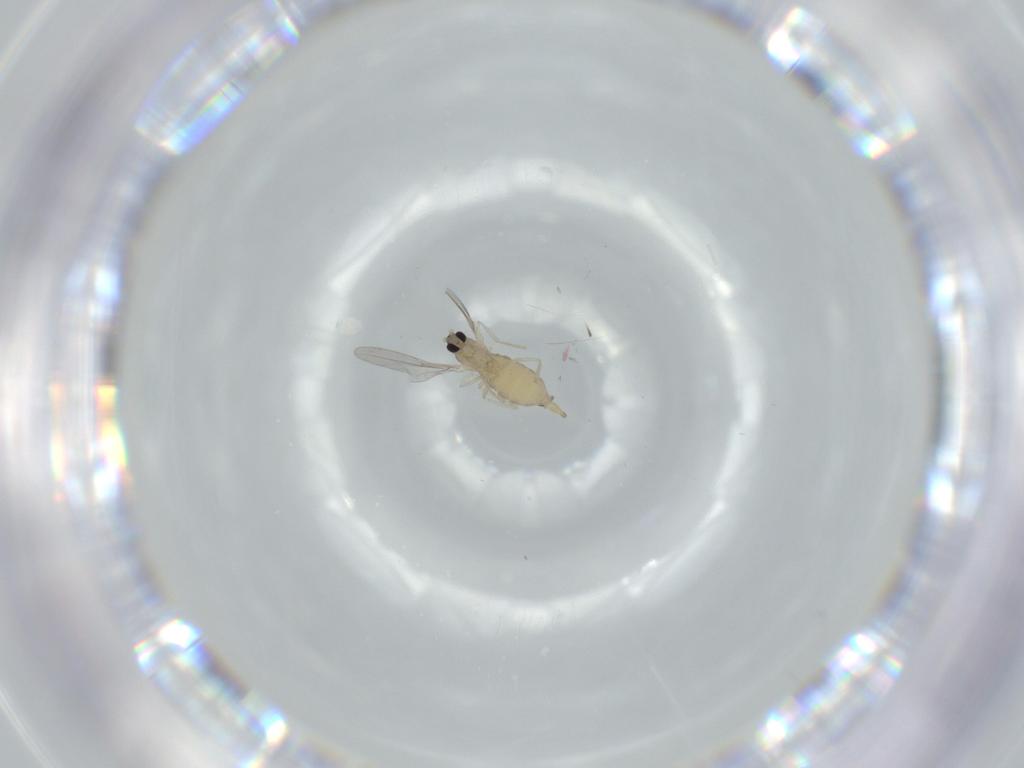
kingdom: Animalia
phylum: Arthropoda
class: Insecta
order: Diptera
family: Cecidomyiidae
